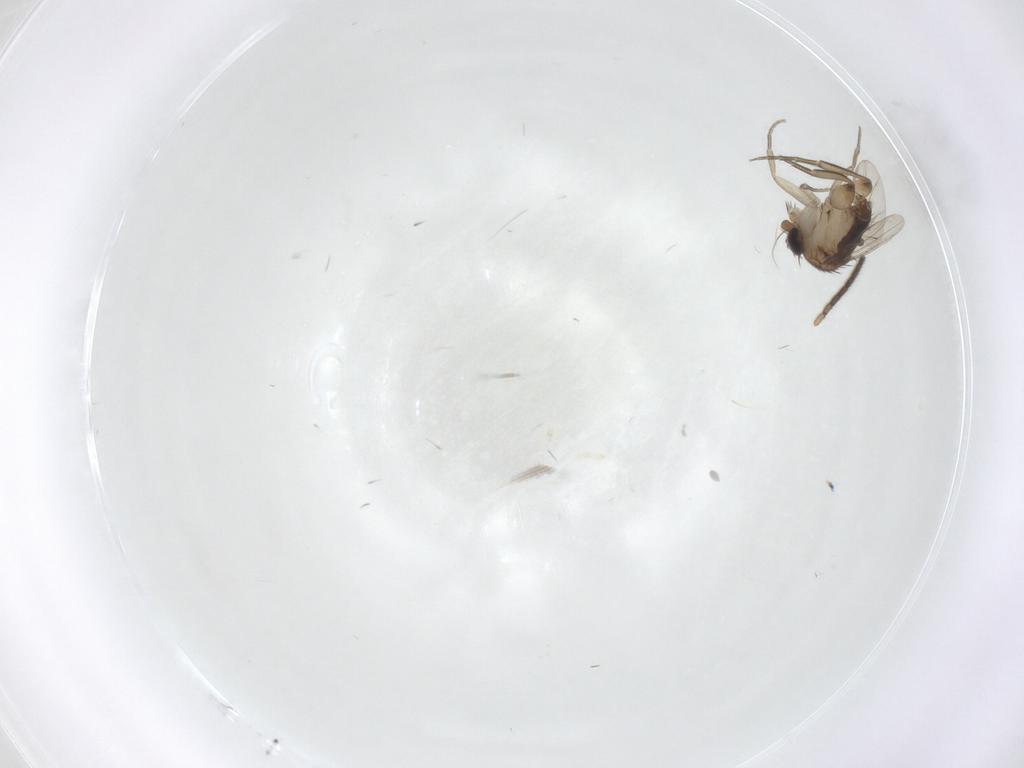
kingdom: Animalia
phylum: Arthropoda
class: Insecta
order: Diptera
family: Sciaridae
